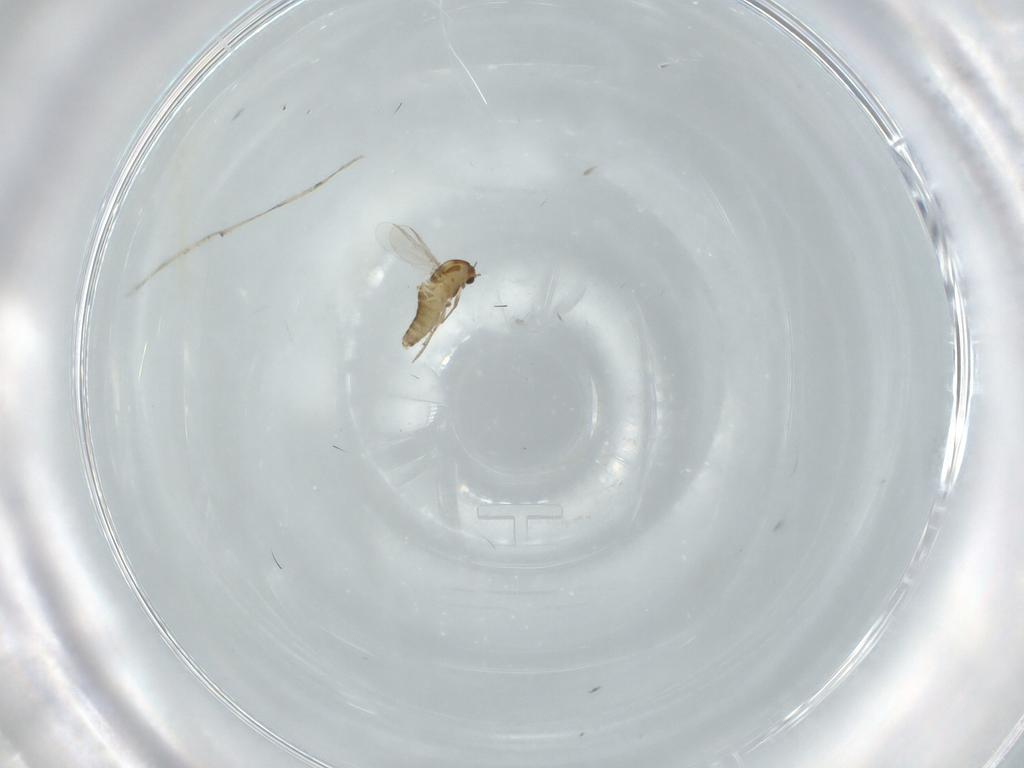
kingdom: Animalia
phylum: Arthropoda
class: Insecta
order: Diptera
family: Chironomidae
